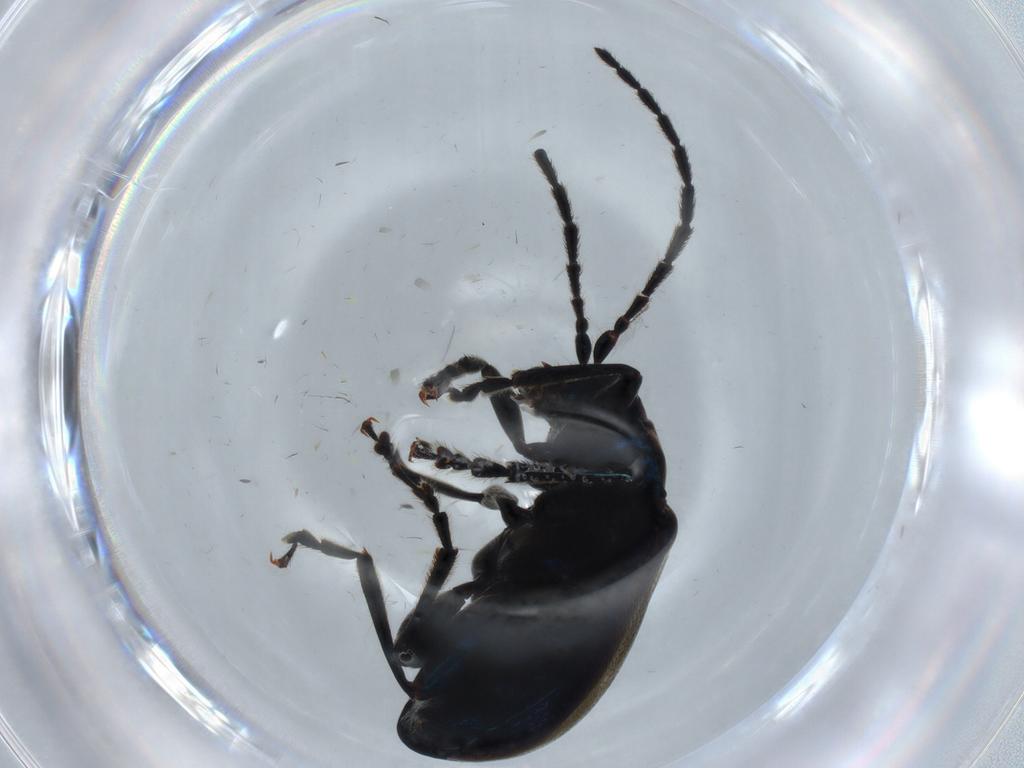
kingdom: Animalia
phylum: Arthropoda
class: Insecta
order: Coleoptera
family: Chrysomelidae
